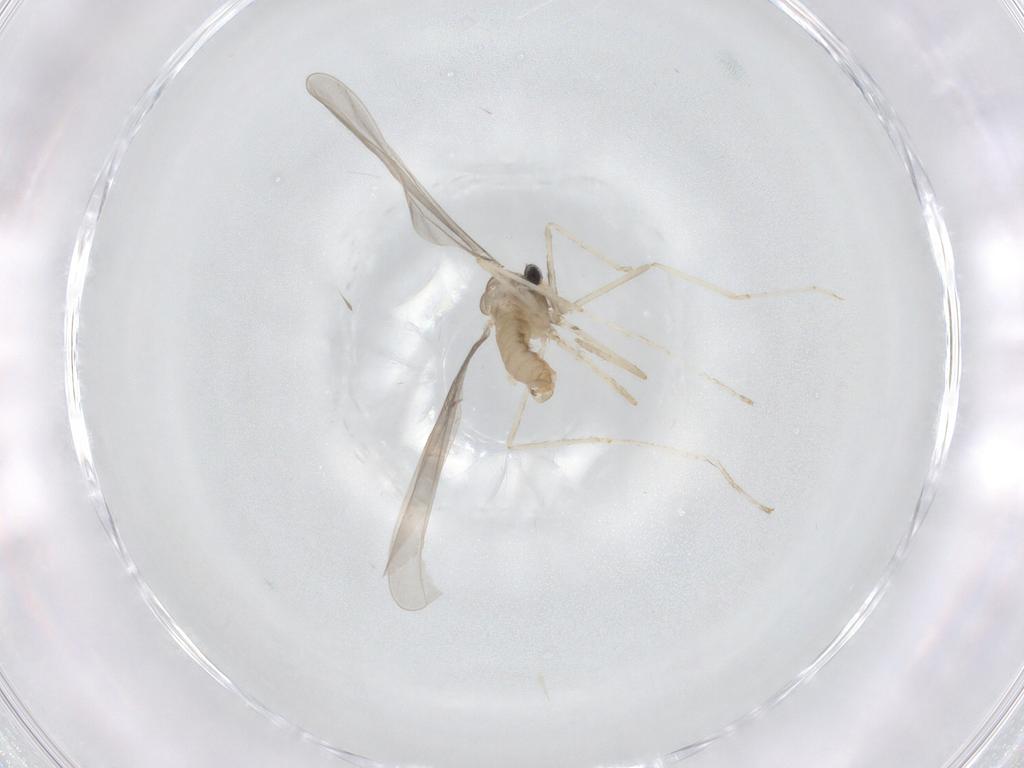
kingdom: Animalia
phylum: Arthropoda
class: Insecta
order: Diptera
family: Cecidomyiidae
